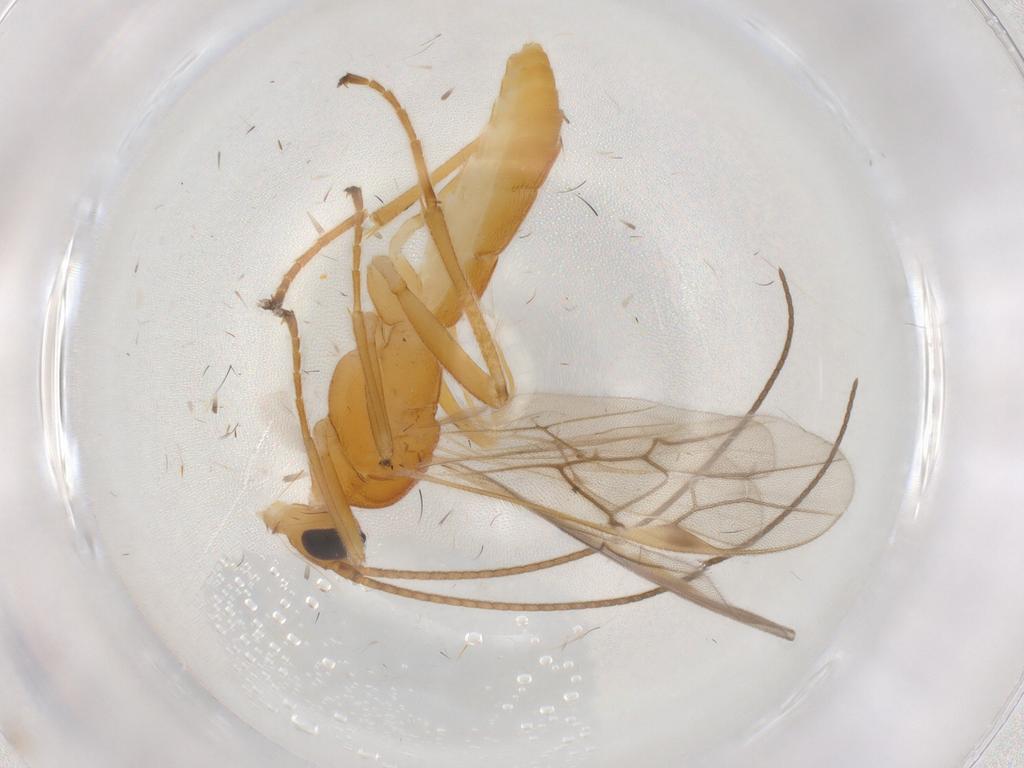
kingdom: Animalia
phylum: Arthropoda
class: Insecta
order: Hymenoptera
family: Braconidae
